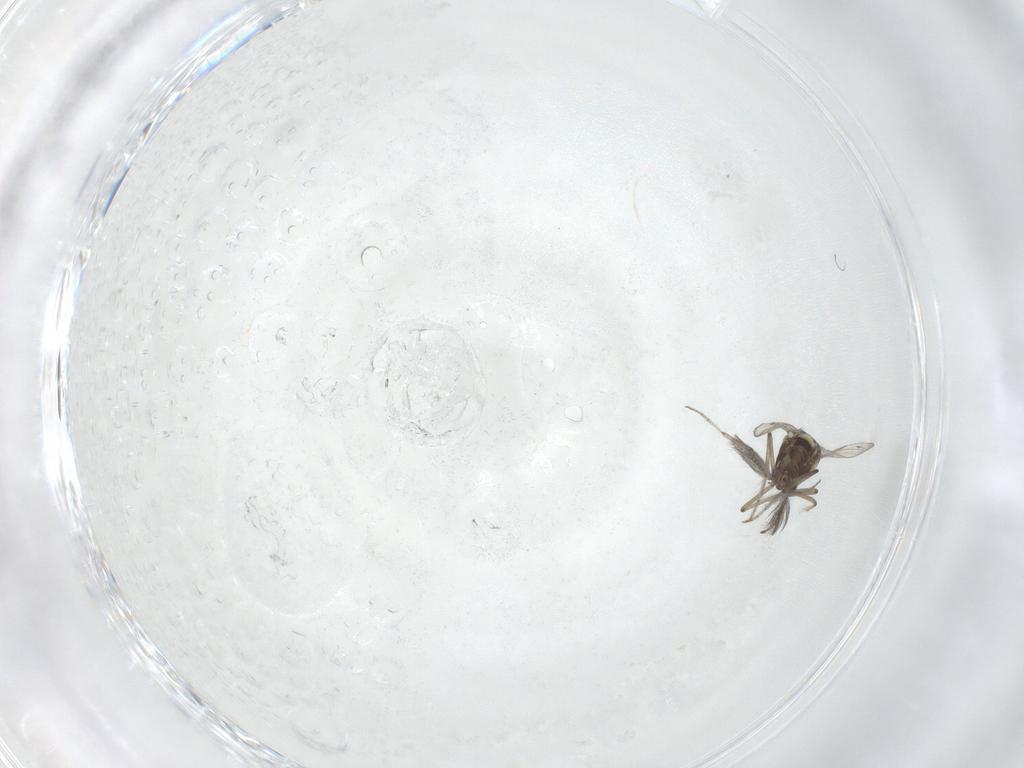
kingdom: Animalia
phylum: Arthropoda
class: Insecta
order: Diptera
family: Ceratopogonidae
